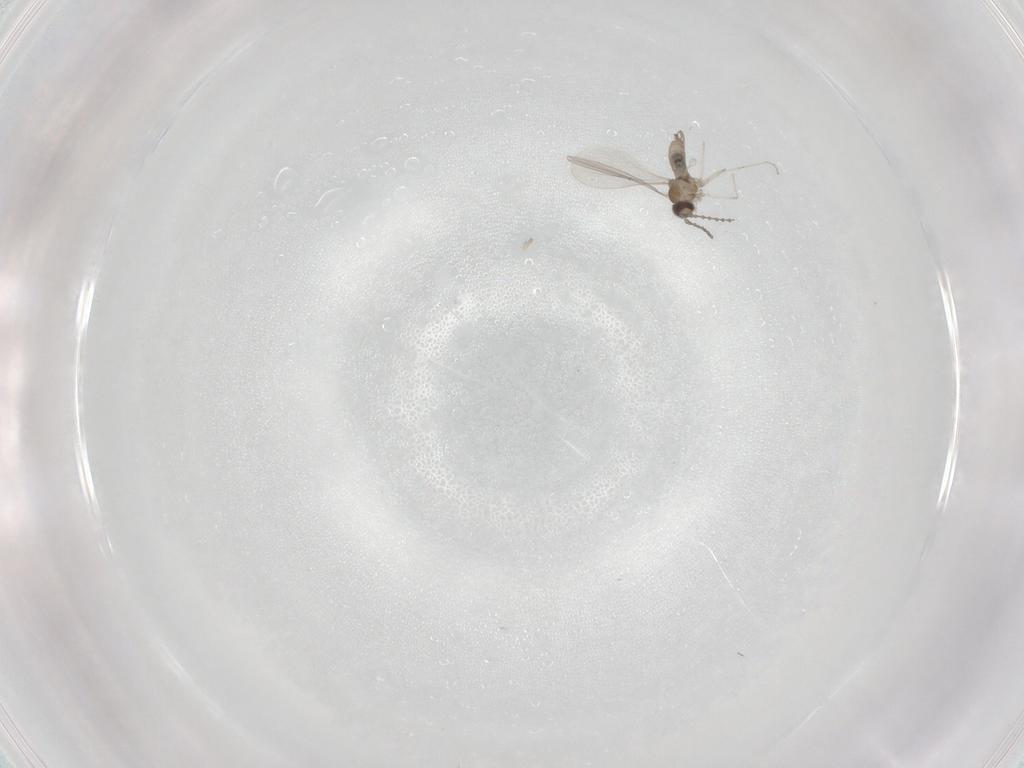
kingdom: Animalia
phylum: Arthropoda
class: Insecta
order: Diptera
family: Cecidomyiidae
